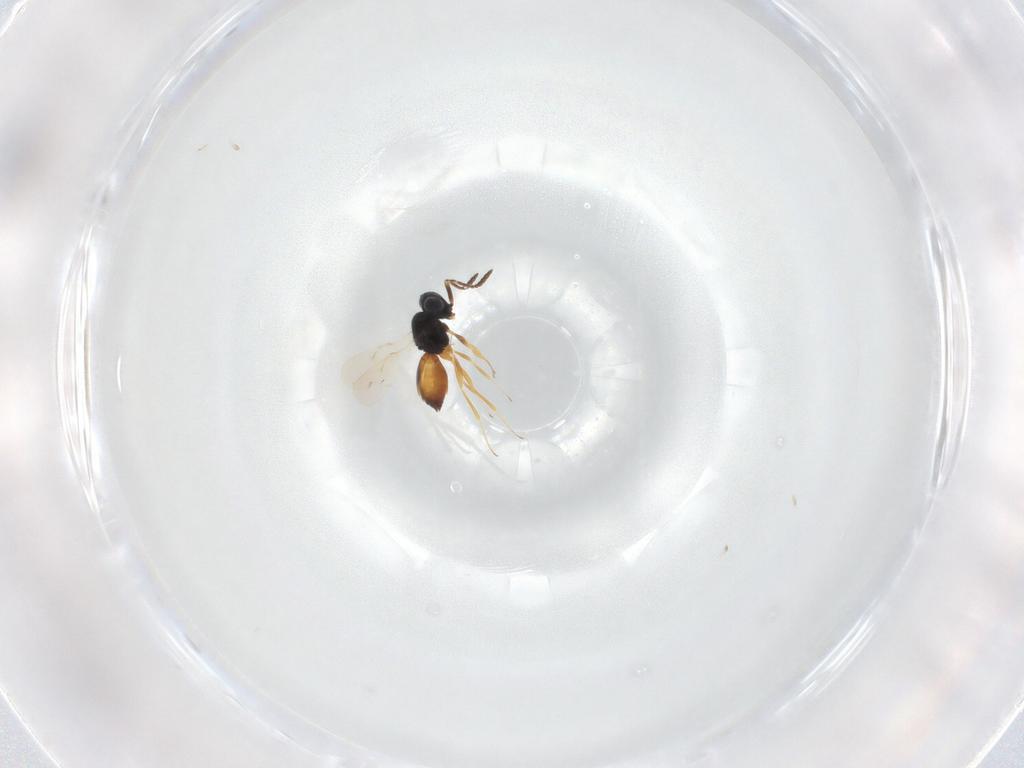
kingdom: Animalia
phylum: Arthropoda
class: Insecta
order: Hymenoptera
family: Scelionidae
